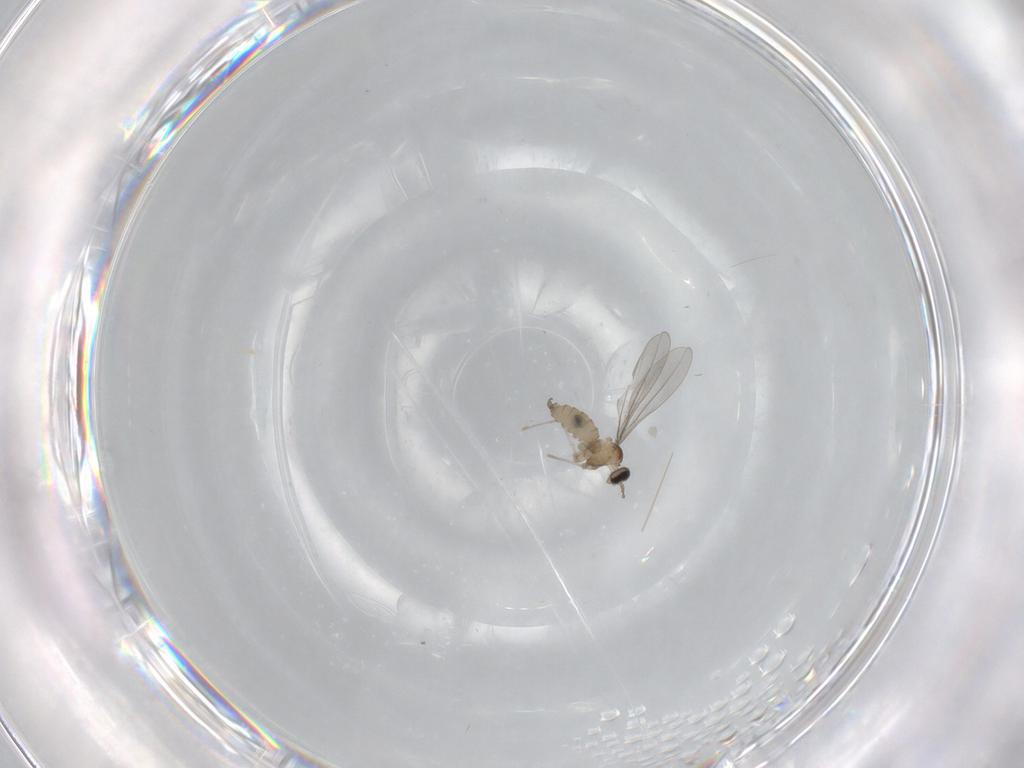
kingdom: Animalia
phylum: Arthropoda
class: Insecta
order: Diptera
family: Cecidomyiidae
